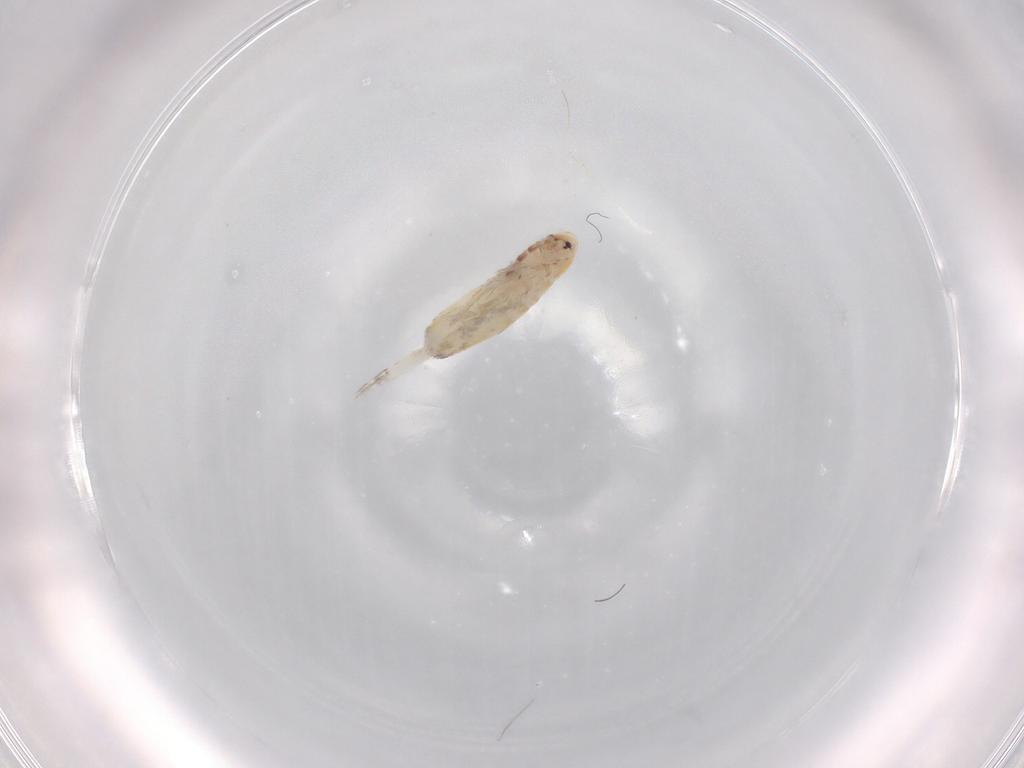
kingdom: Animalia
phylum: Arthropoda
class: Collembola
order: Entomobryomorpha
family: Entomobryidae
